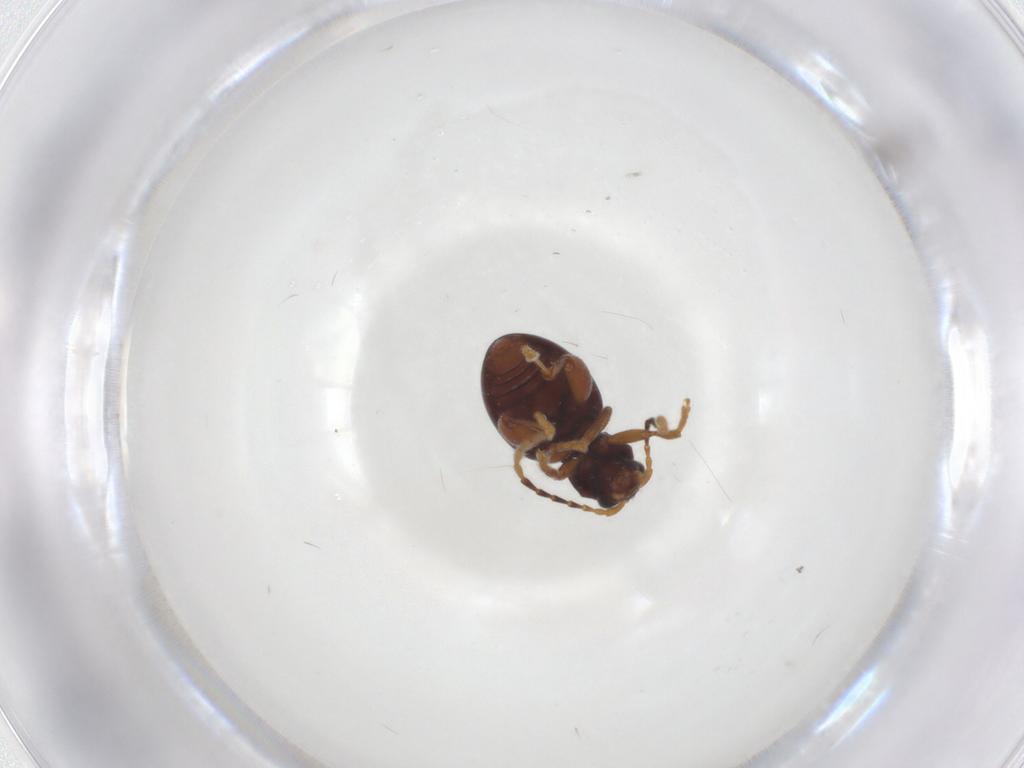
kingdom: Animalia
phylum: Arthropoda
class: Insecta
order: Coleoptera
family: Chrysomelidae
